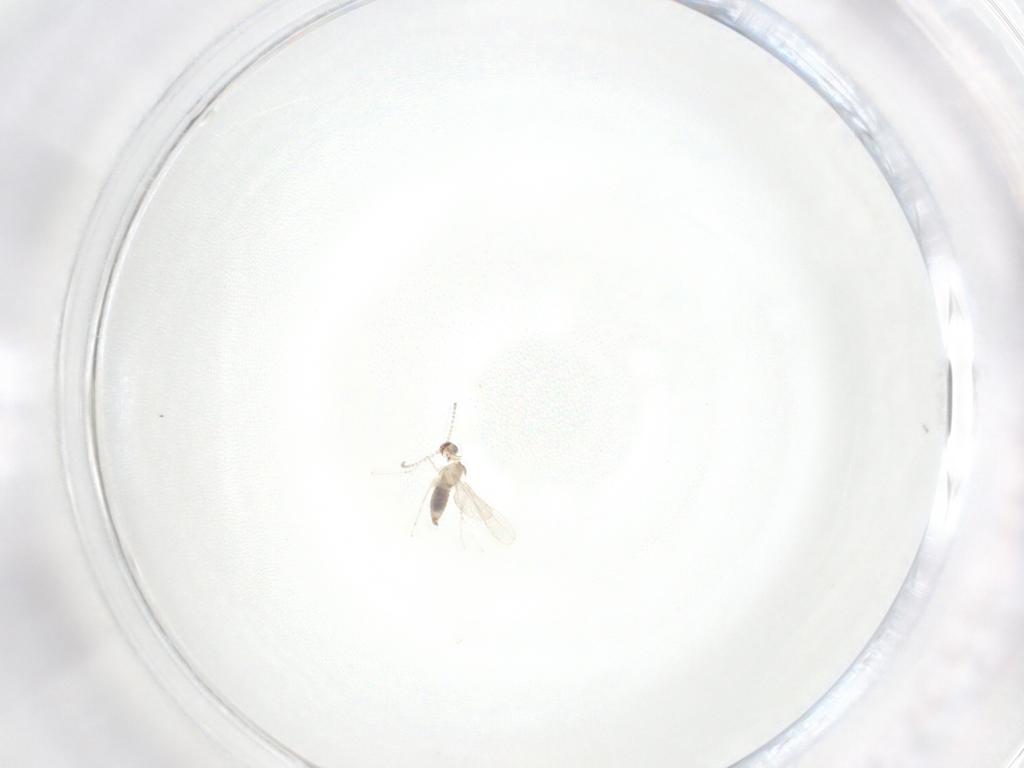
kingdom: Animalia
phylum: Arthropoda
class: Insecta
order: Diptera
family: Cecidomyiidae
